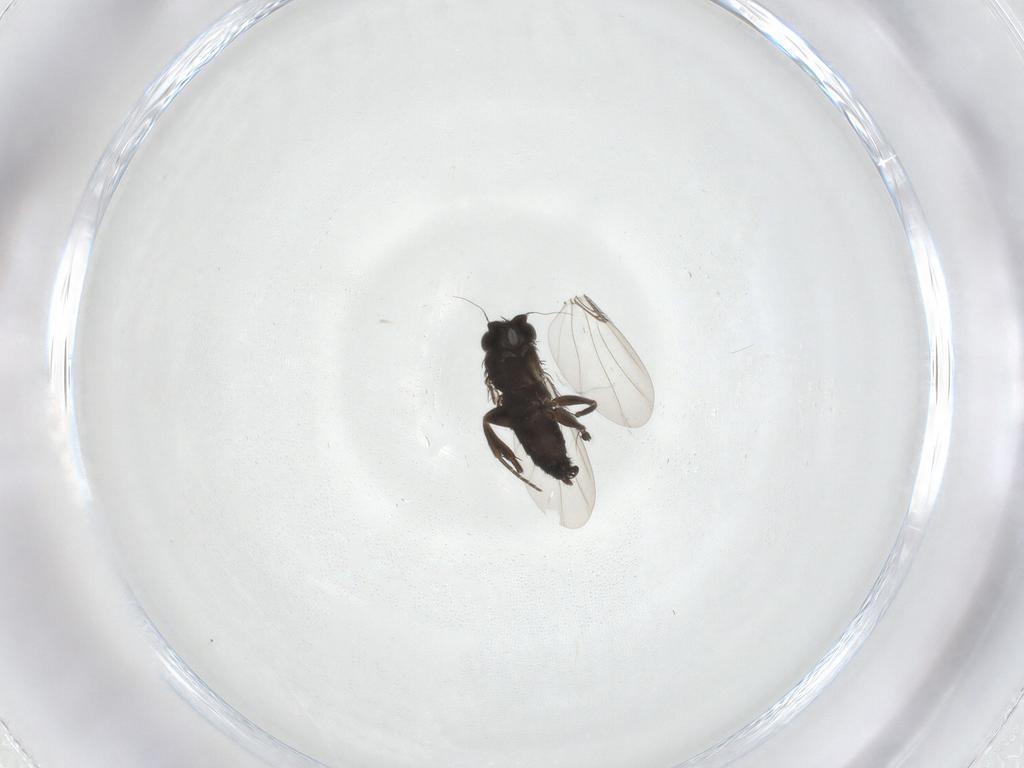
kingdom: Animalia
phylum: Arthropoda
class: Insecta
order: Diptera
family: Phoridae
